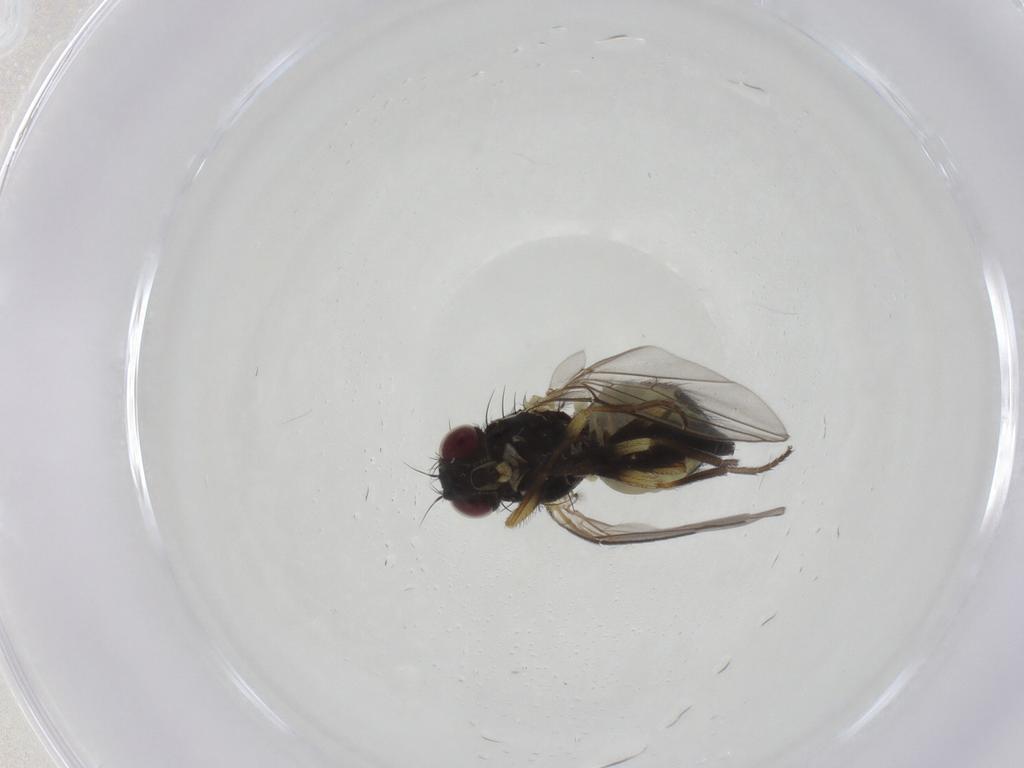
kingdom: Animalia
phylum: Arthropoda
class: Insecta
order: Diptera
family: Agromyzidae
